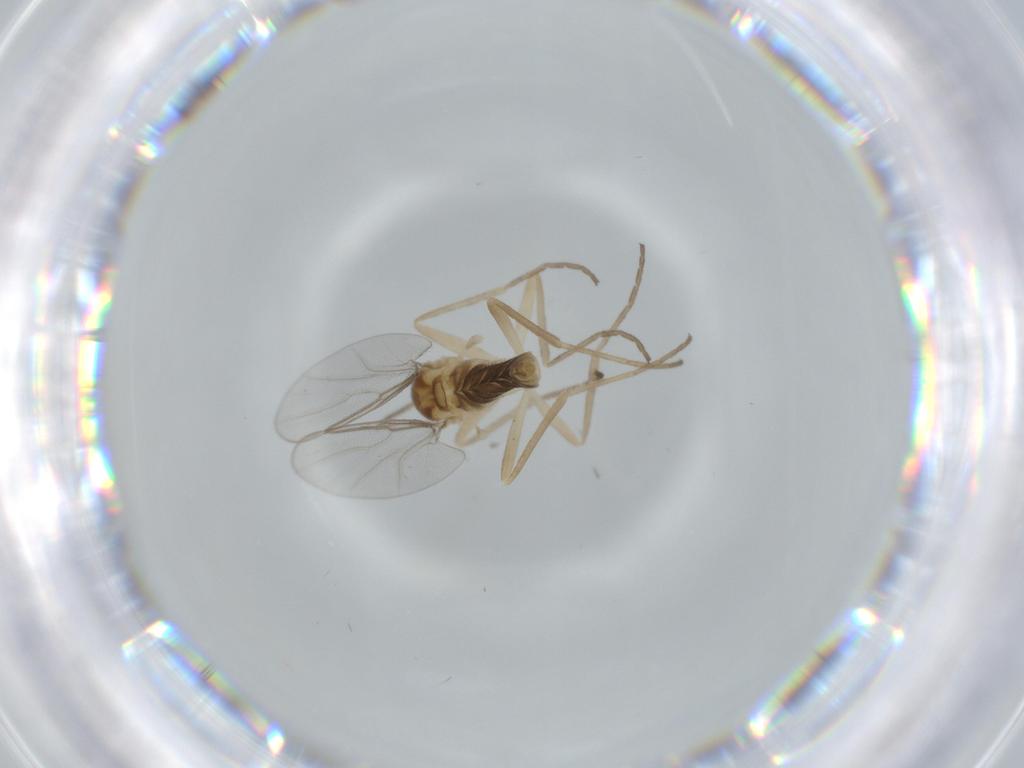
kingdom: Animalia
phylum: Arthropoda
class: Insecta
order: Diptera
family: Cecidomyiidae
